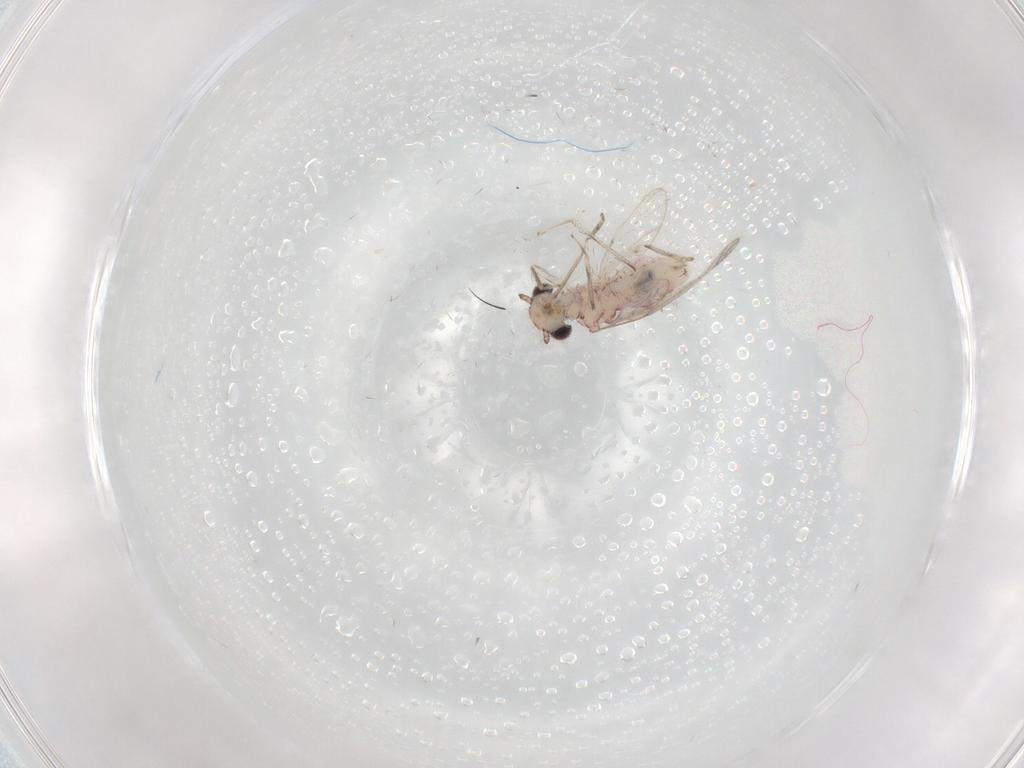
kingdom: Animalia
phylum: Arthropoda
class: Insecta
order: Psocodea
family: Caeciliusidae
